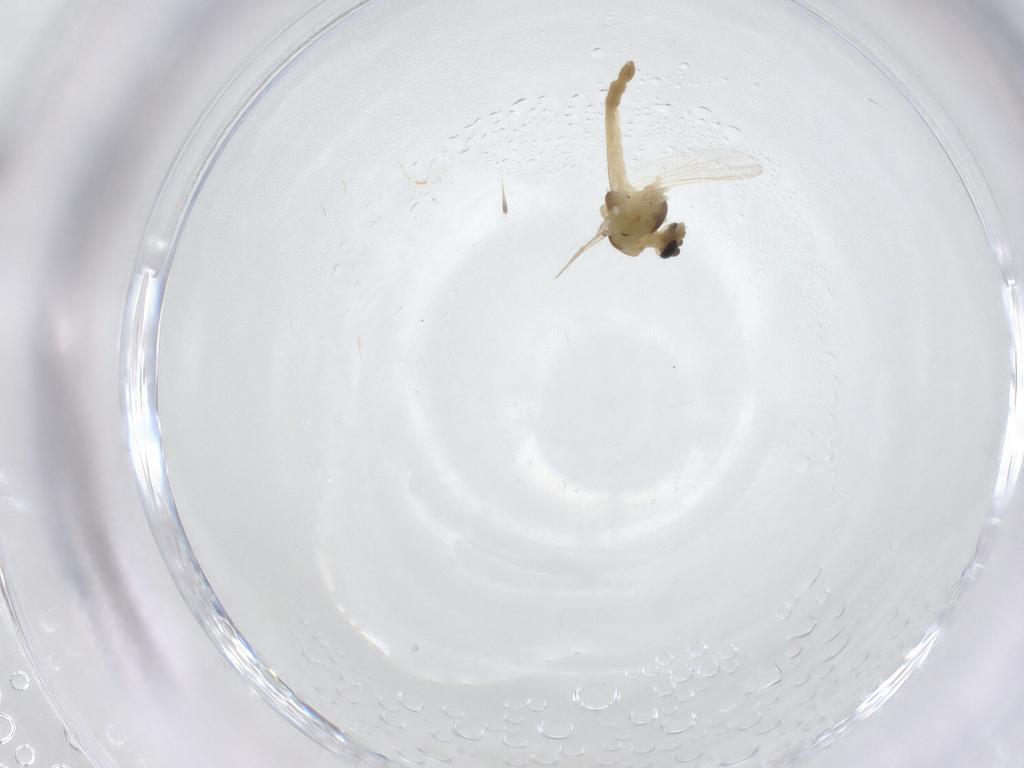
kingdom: Animalia
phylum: Arthropoda
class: Insecta
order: Diptera
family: Chironomidae
